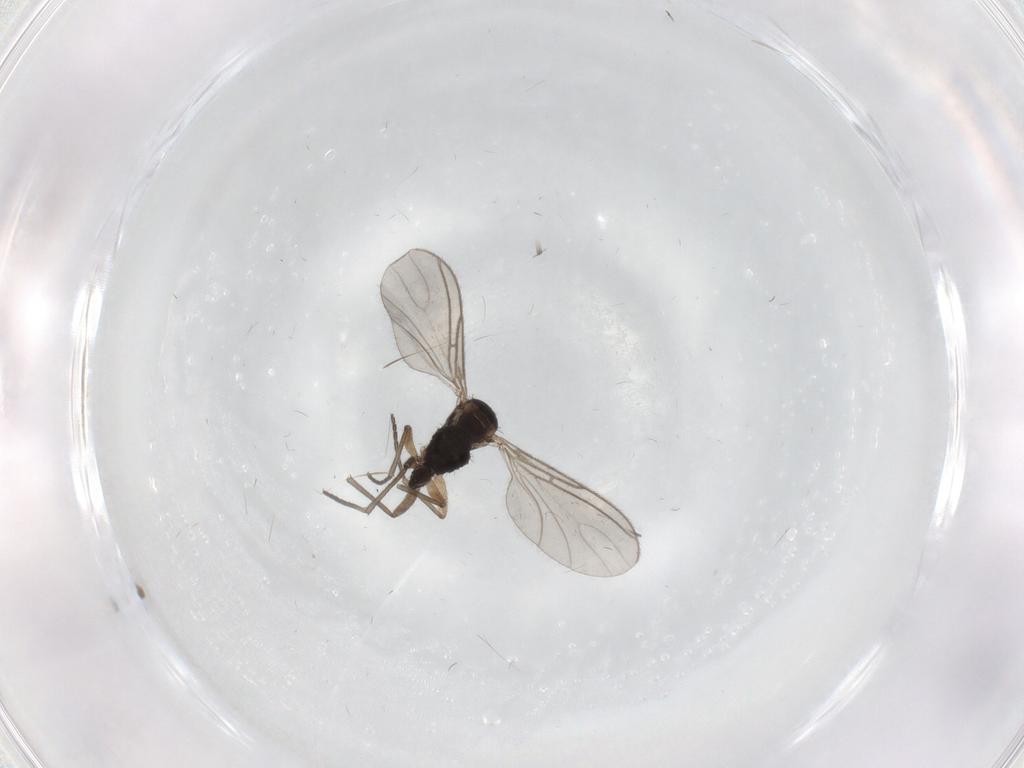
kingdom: Animalia
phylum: Arthropoda
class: Insecta
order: Diptera
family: Sciaridae
